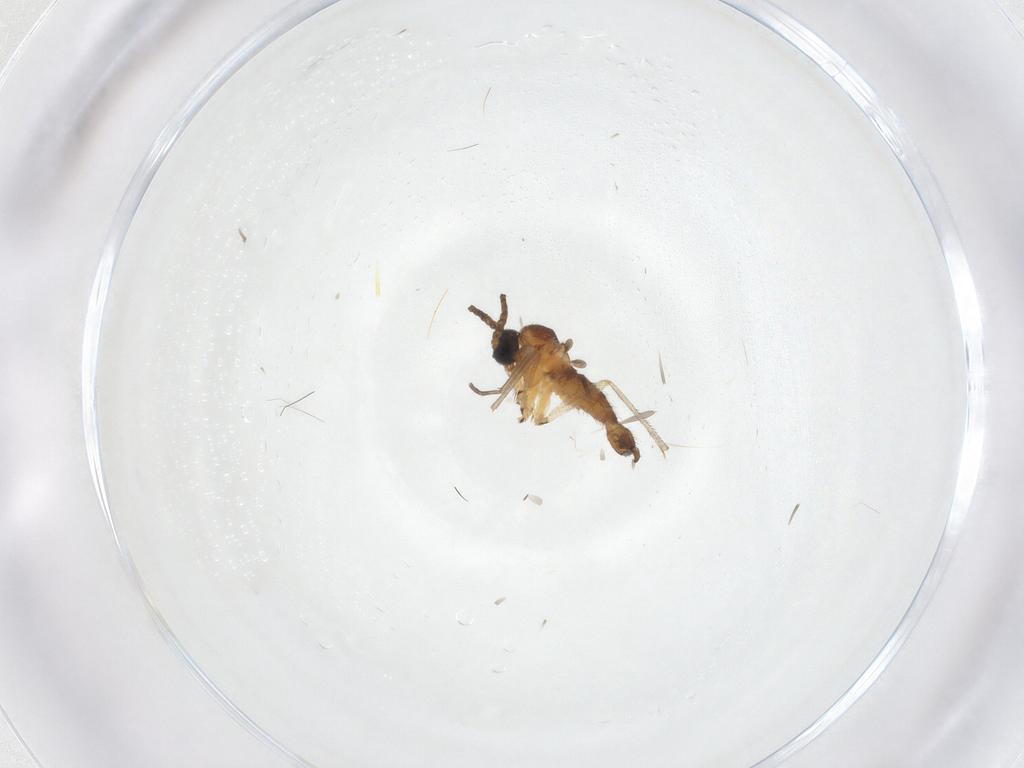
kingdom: Animalia
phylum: Arthropoda
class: Insecta
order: Diptera
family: Sciaridae
